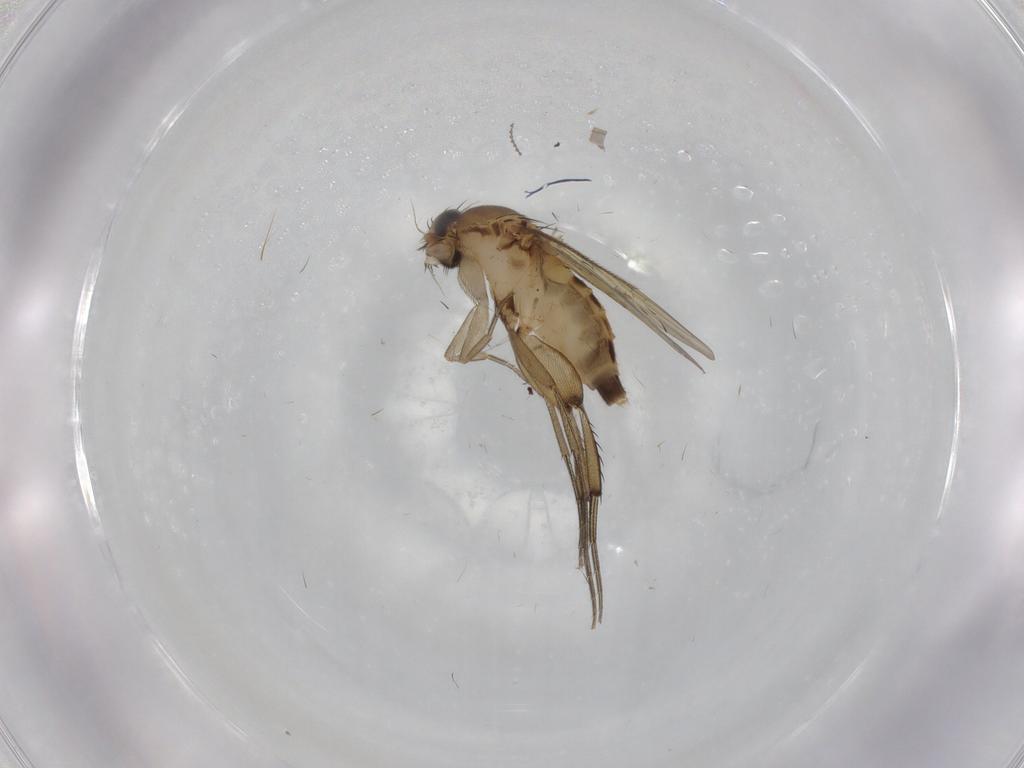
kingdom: Animalia
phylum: Arthropoda
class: Insecta
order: Diptera
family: Phoridae
